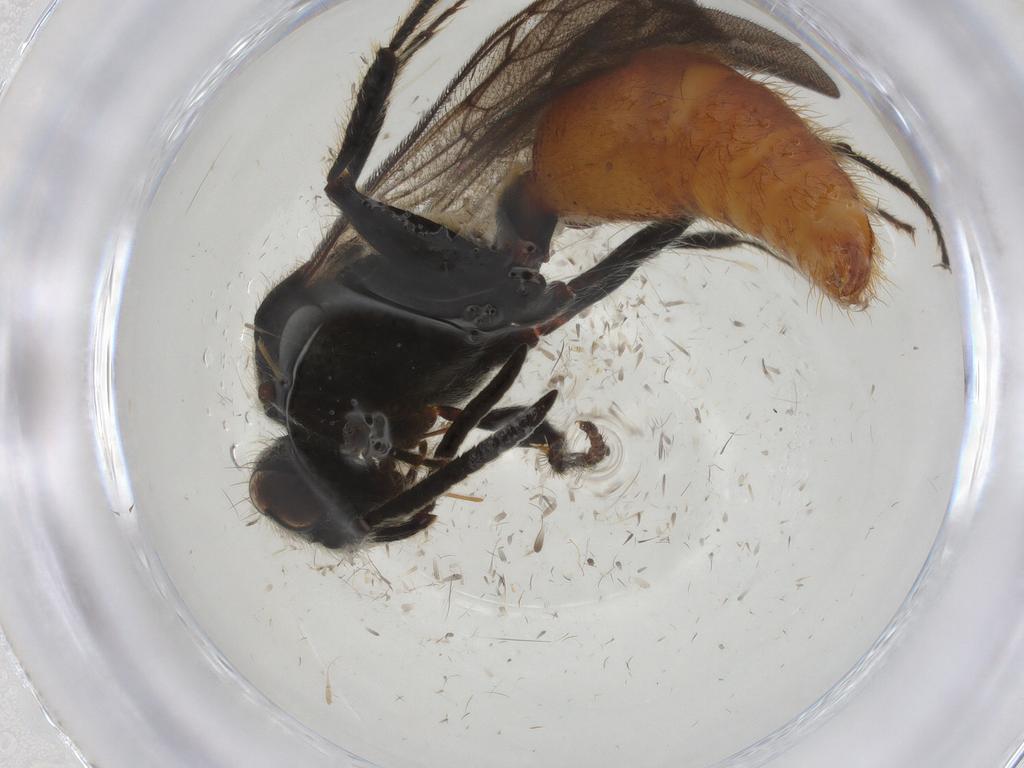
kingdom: Animalia
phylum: Arthropoda
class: Insecta
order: Hymenoptera
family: Mutillidae
